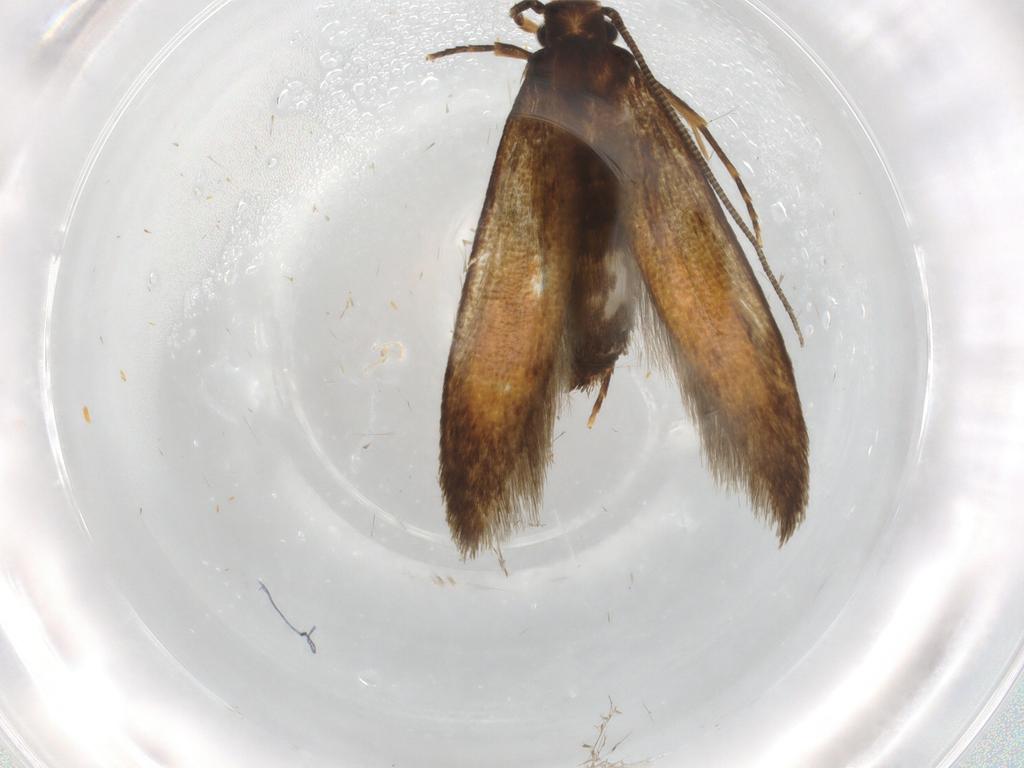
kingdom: Animalia
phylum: Arthropoda
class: Insecta
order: Lepidoptera
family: Tineidae
